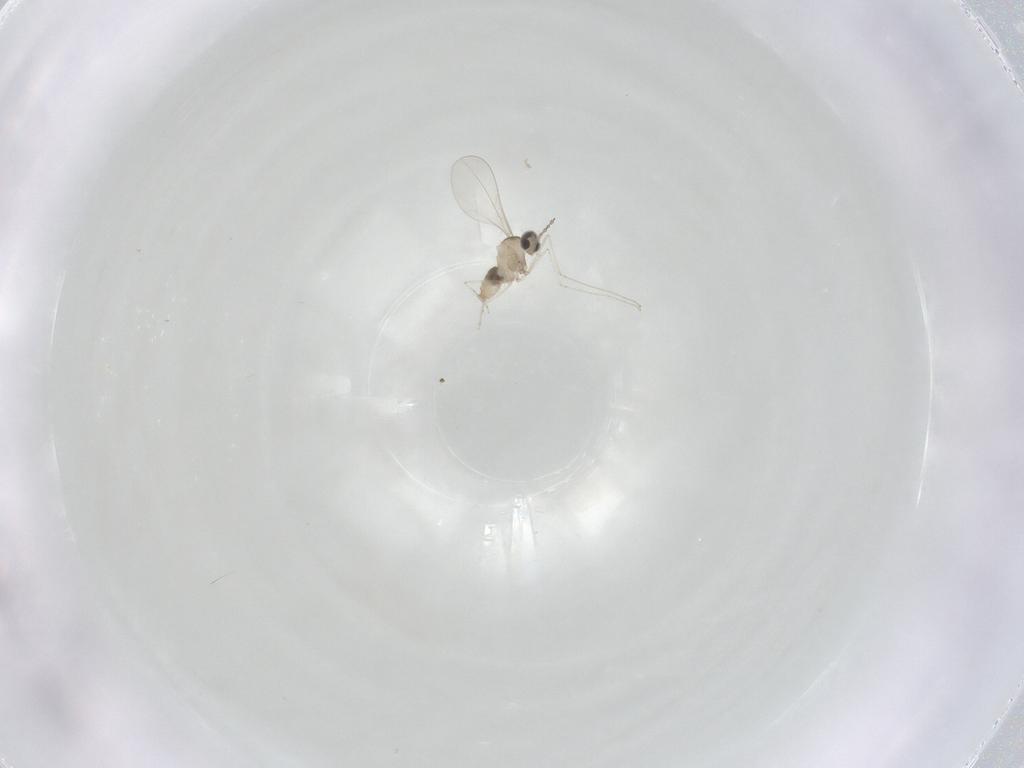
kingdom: Animalia
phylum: Arthropoda
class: Insecta
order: Diptera
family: Cecidomyiidae
